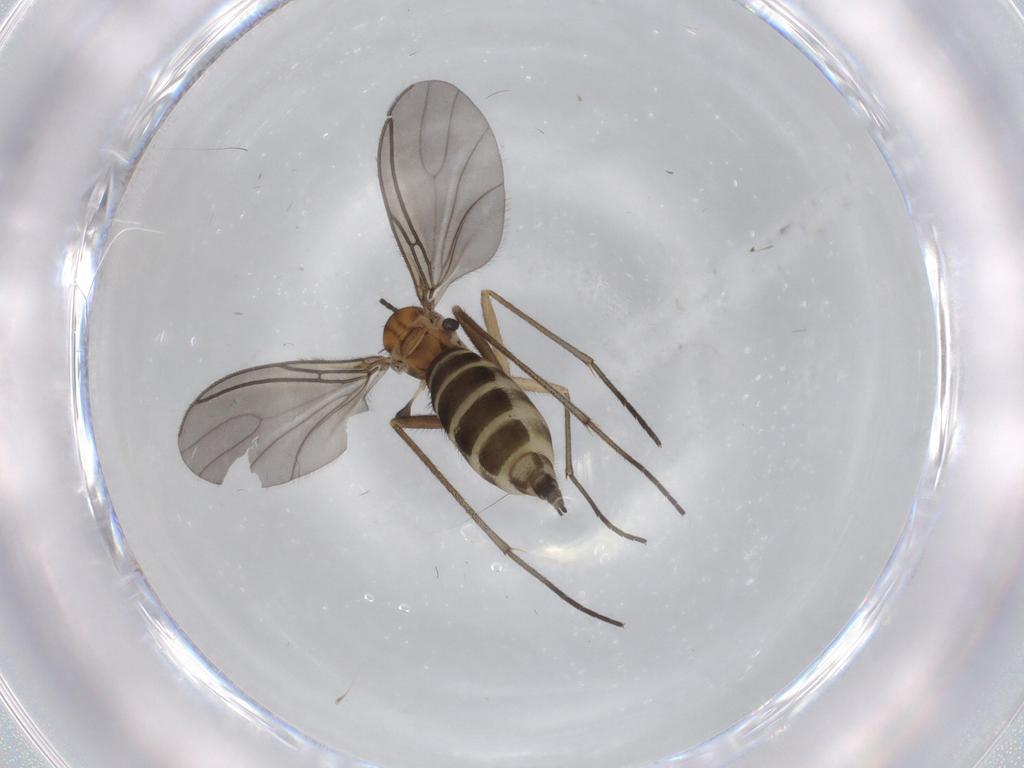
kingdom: Animalia
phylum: Arthropoda
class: Insecta
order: Diptera
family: Sciaridae
